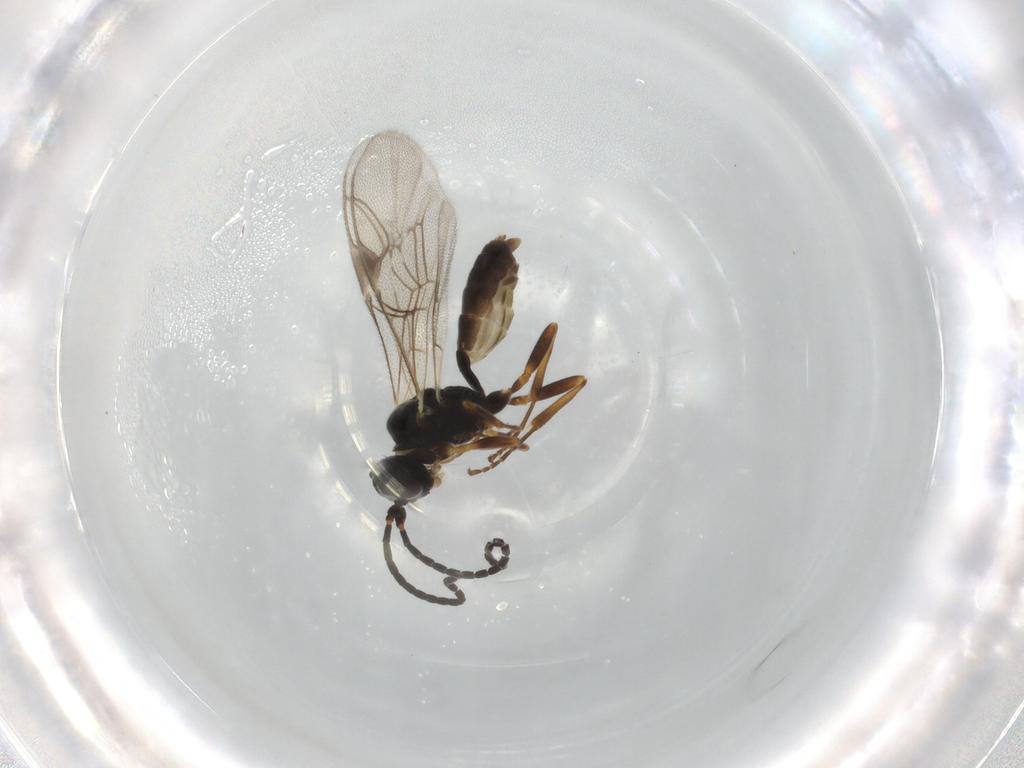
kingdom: Animalia
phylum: Arthropoda
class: Insecta
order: Hymenoptera
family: Ichneumonidae
